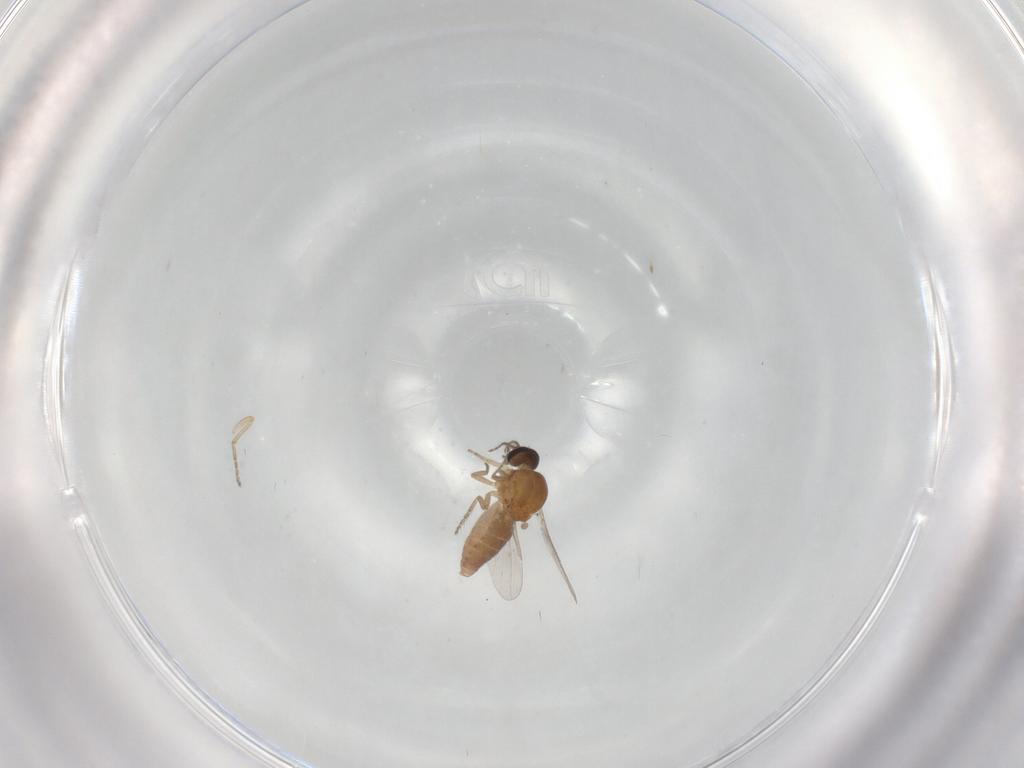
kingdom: Animalia
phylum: Arthropoda
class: Insecta
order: Diptera
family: Ceratopogonidae
